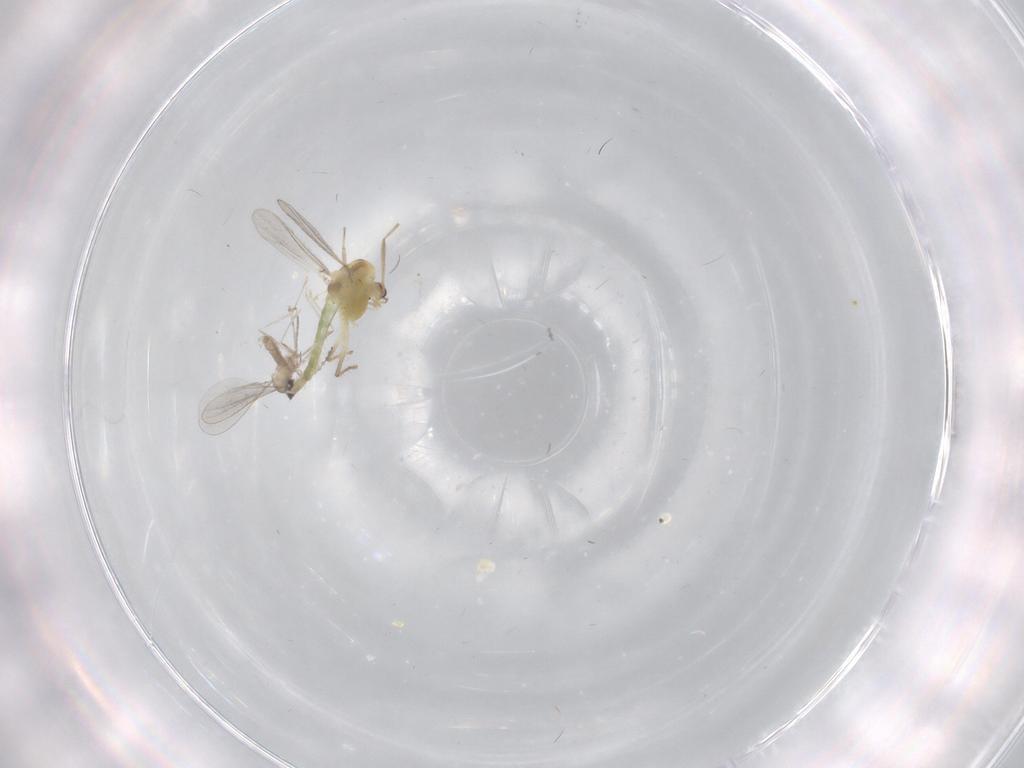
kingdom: Animalia
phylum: Arthropoda
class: Insecta
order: Diptera
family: Chironomidae
